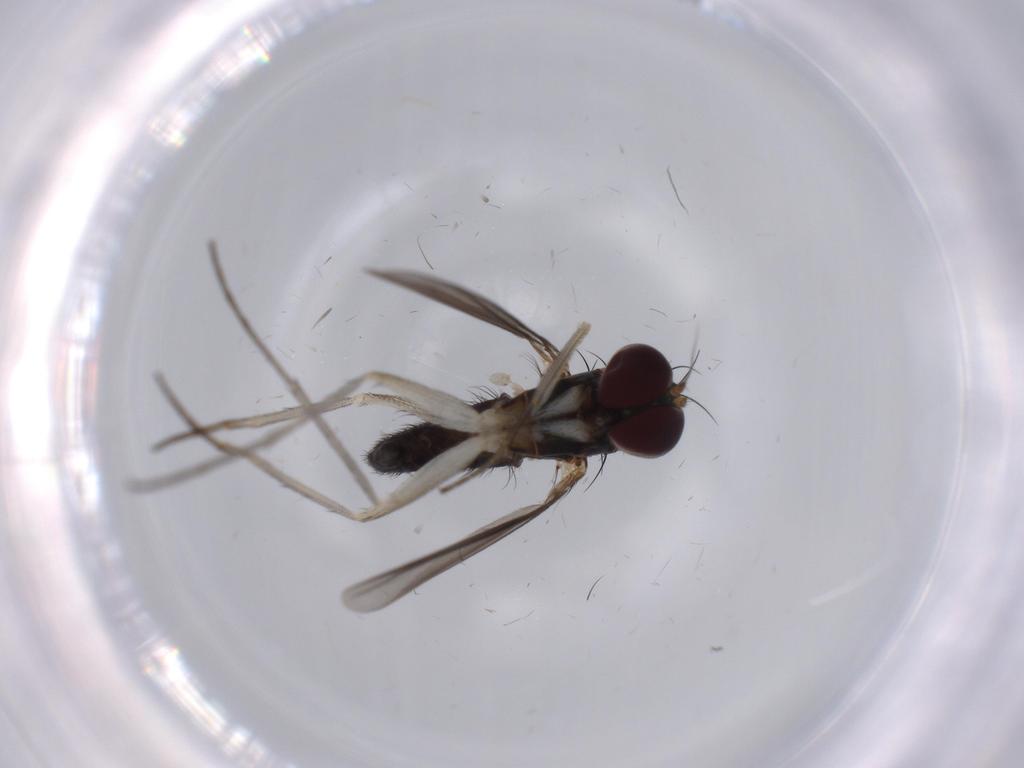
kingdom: Animalia
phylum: Arthropoda
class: Insecta
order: Diptera
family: Dolichopodidae
